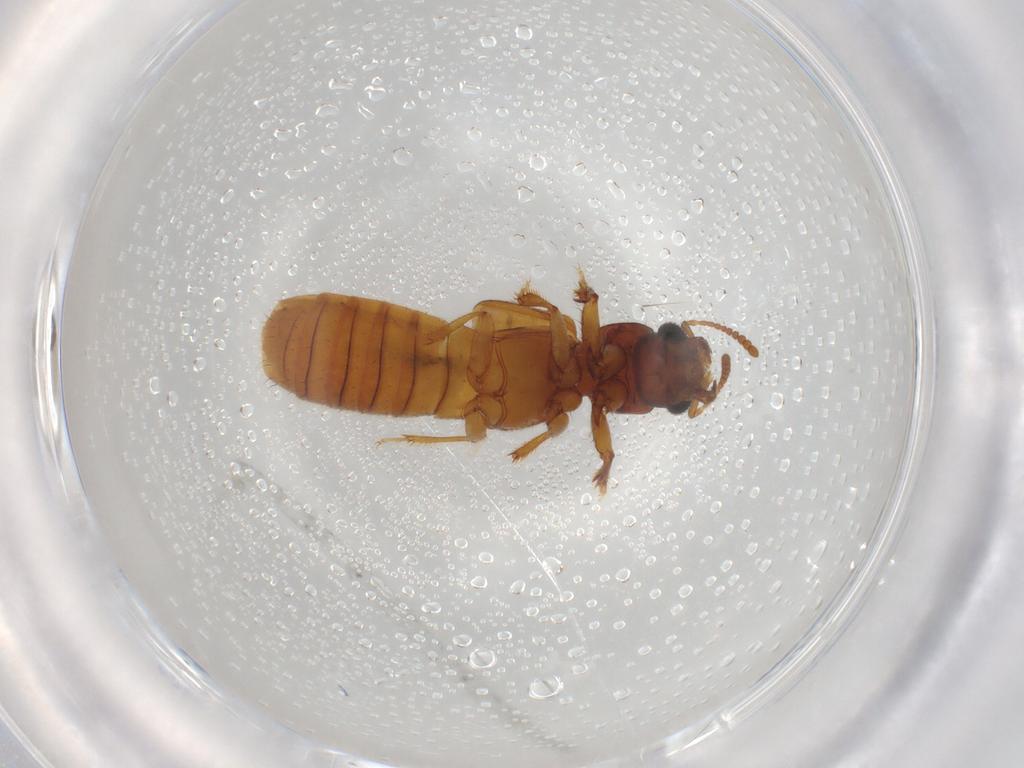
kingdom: Animalia
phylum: Arthropoda
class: Insecta
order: Coleoptera
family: Staphylinidae
